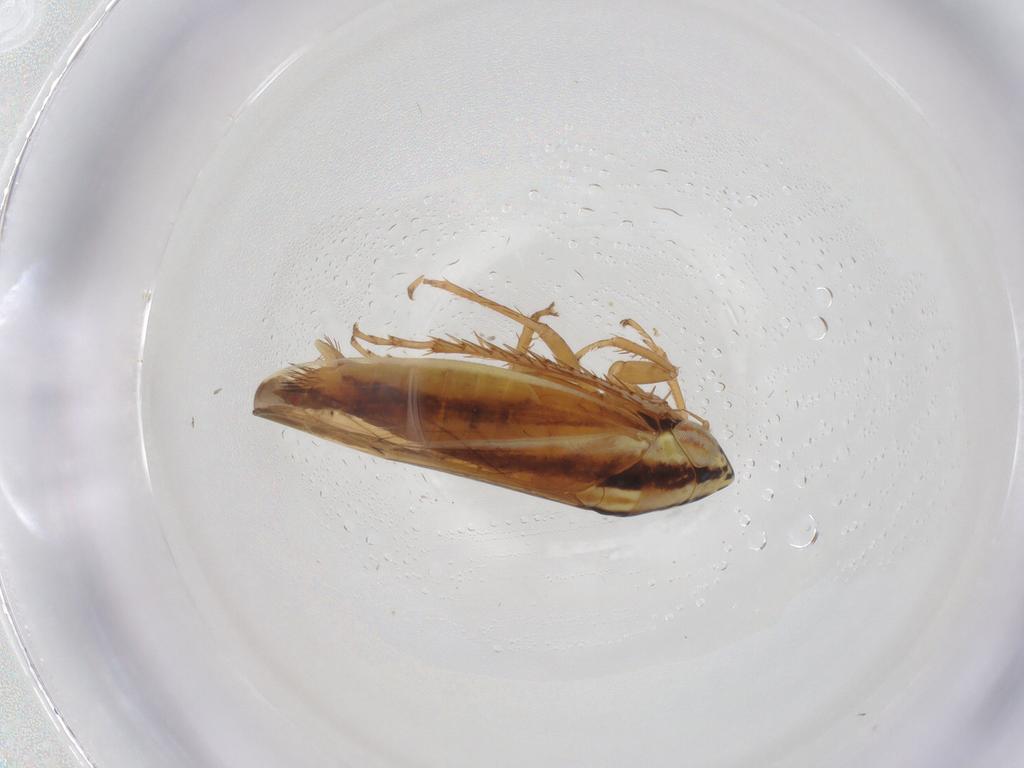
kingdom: Animalia
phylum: Arthropoda
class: Insecta
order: Hemiptera
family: Cicadellidae
